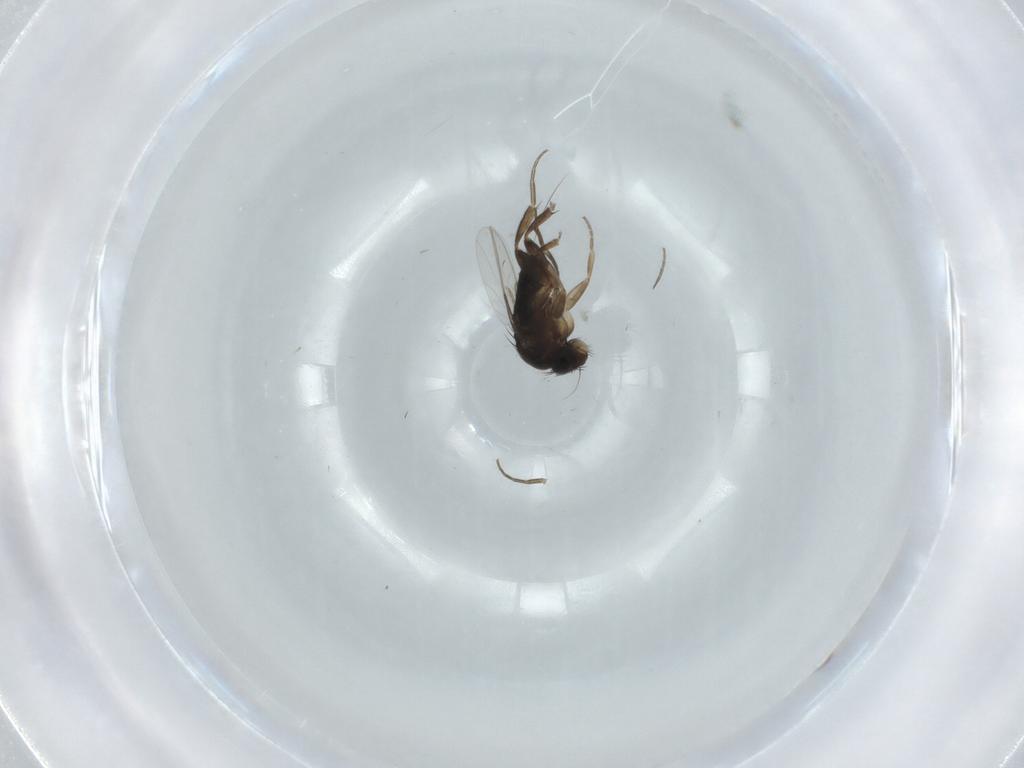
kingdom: Animalia
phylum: Arthropoda
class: Insecta
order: Diptera
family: Phoridae
